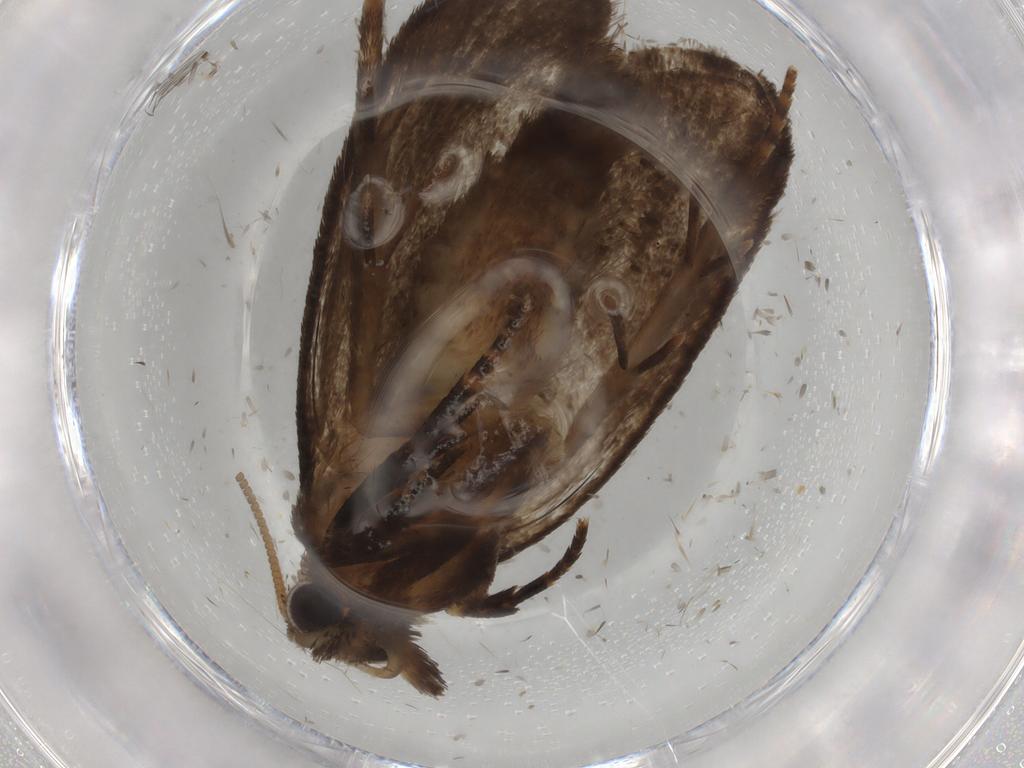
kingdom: Animalia
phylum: Arthropoda
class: Insecta
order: Lepidoptera
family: Tineidae
